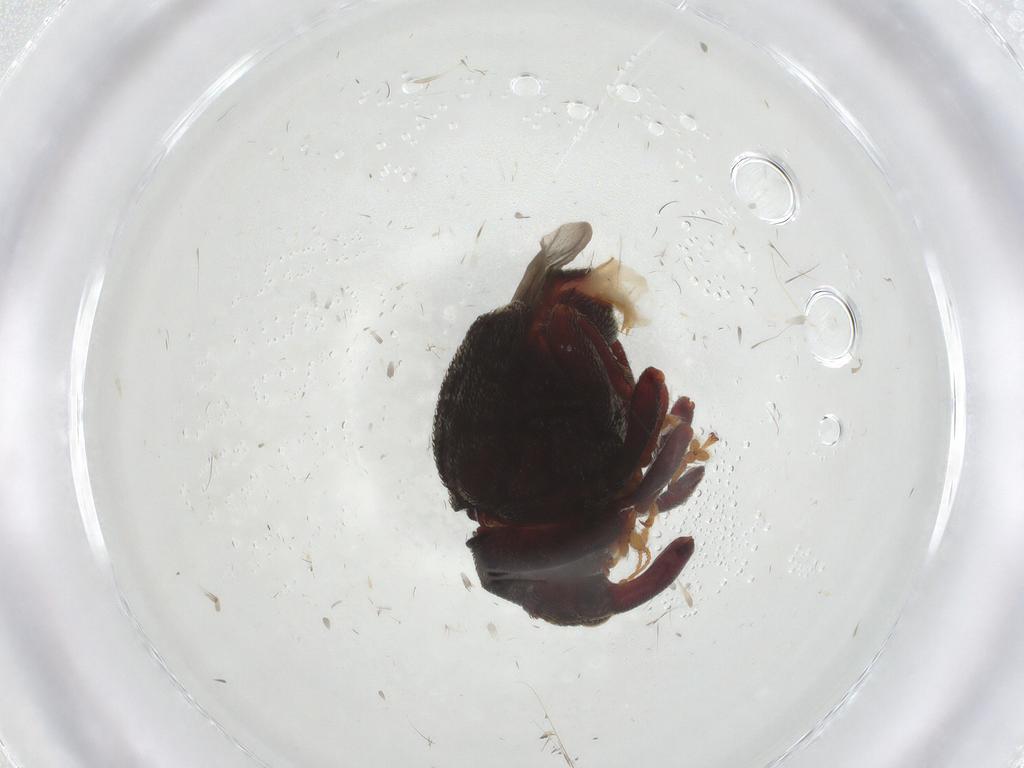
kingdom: Animalia
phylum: Arthropoda
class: Insecta
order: Coleoptera
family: Curculionidae
